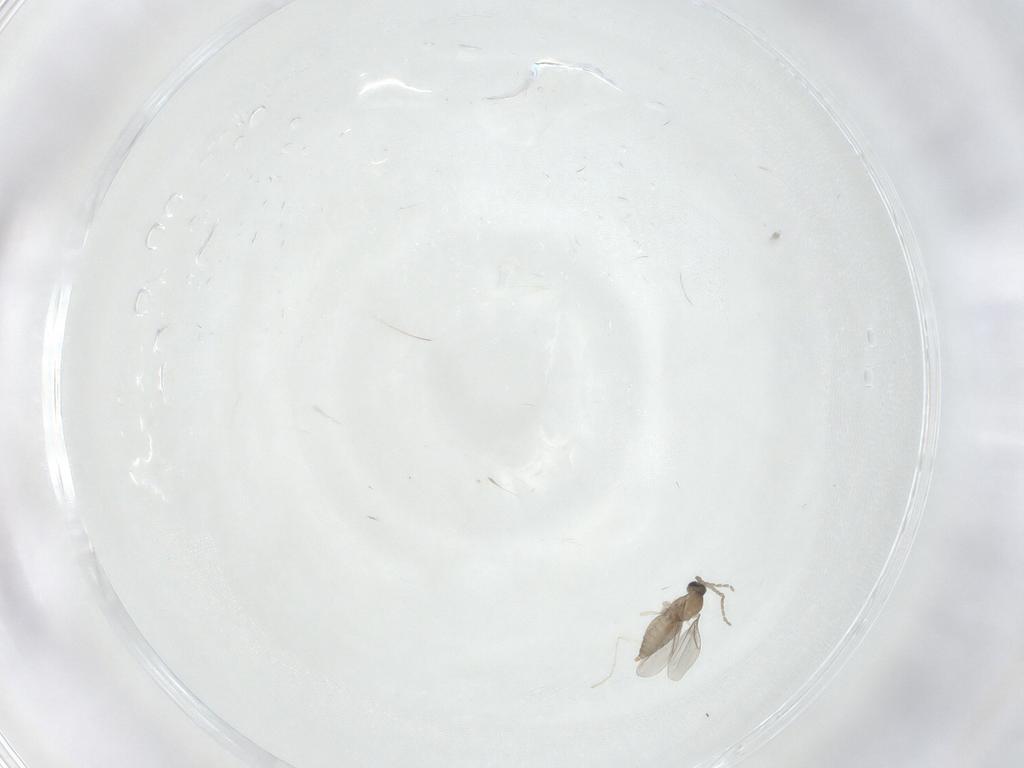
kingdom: Animalia
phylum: Arthropoda
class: Insecta
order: Diptera
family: Cecidomyiidae
